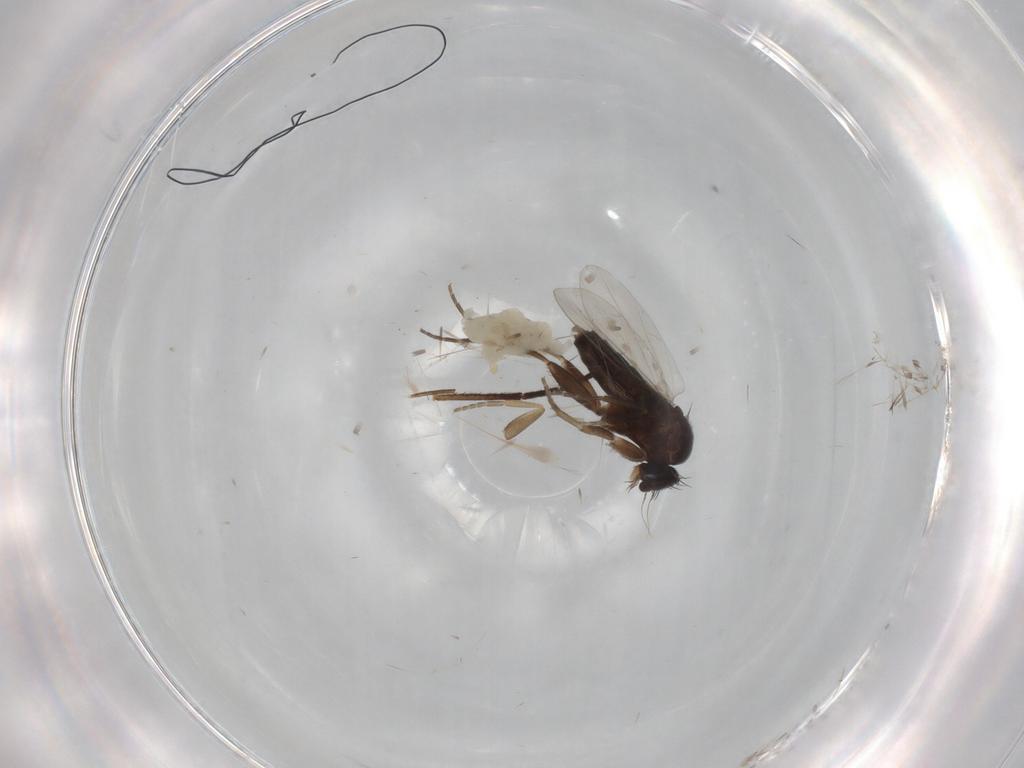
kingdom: Animalia
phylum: Arthropoda
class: Insecta
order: Diptera
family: Phoridae
